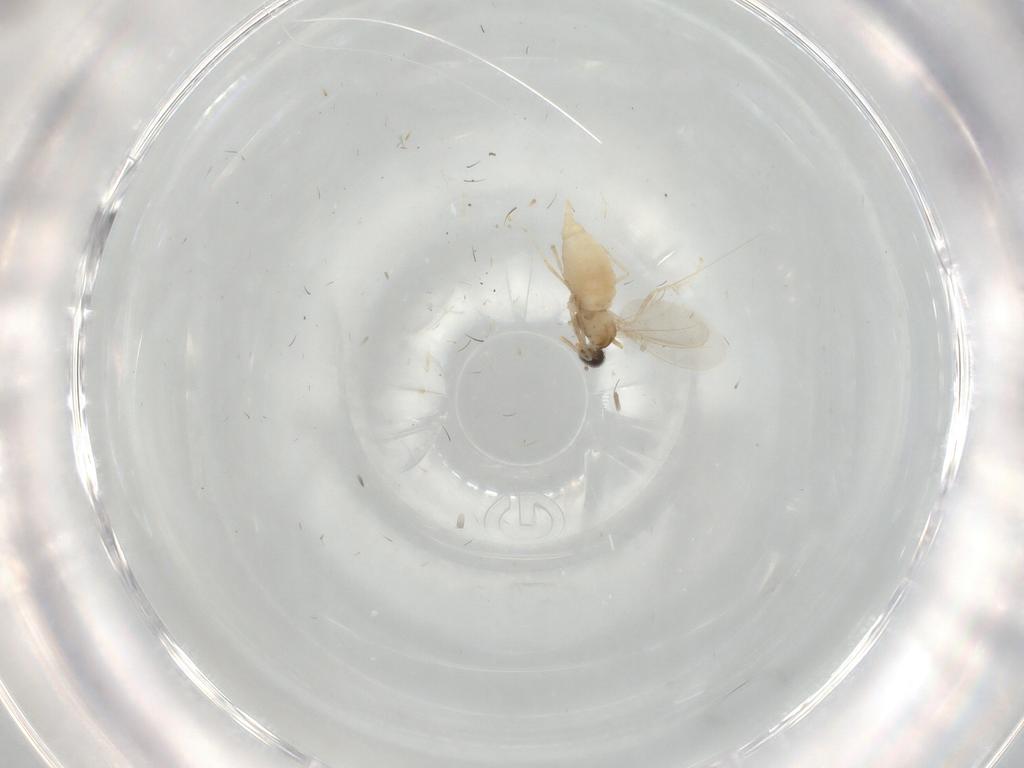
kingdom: Animalia
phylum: Arthropoda
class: Insecta
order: Diptera
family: Cecidomyiidae
